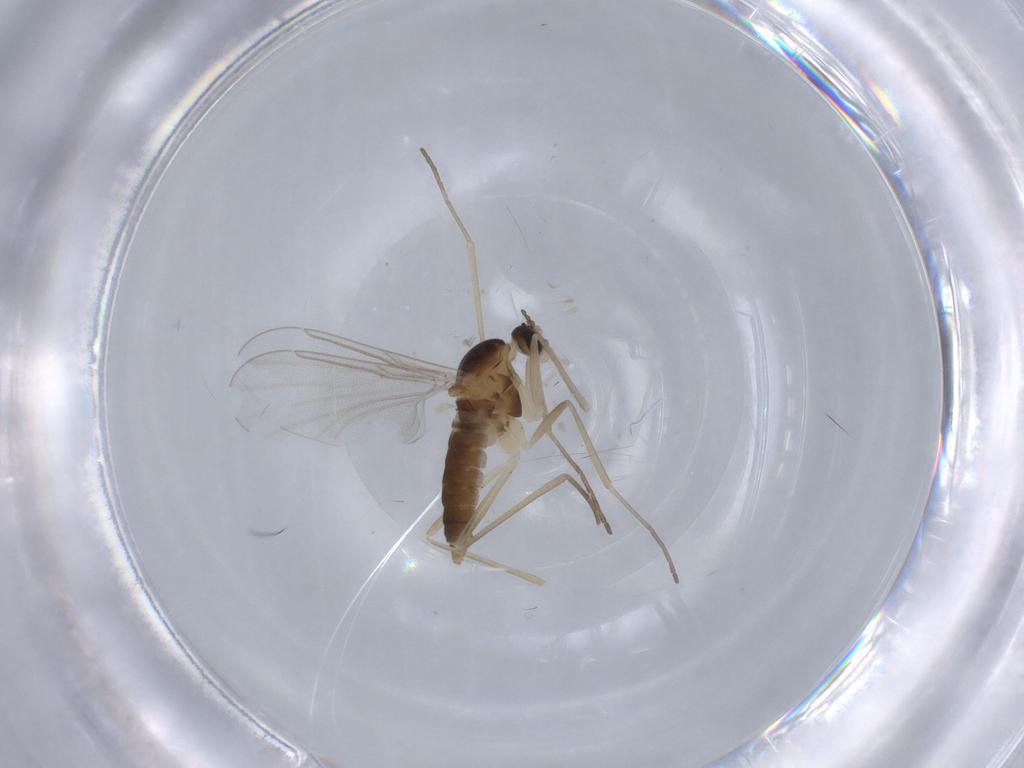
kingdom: Animalia
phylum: Arthropoda
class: Insecta
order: Diptera
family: Cecidomyiidae
